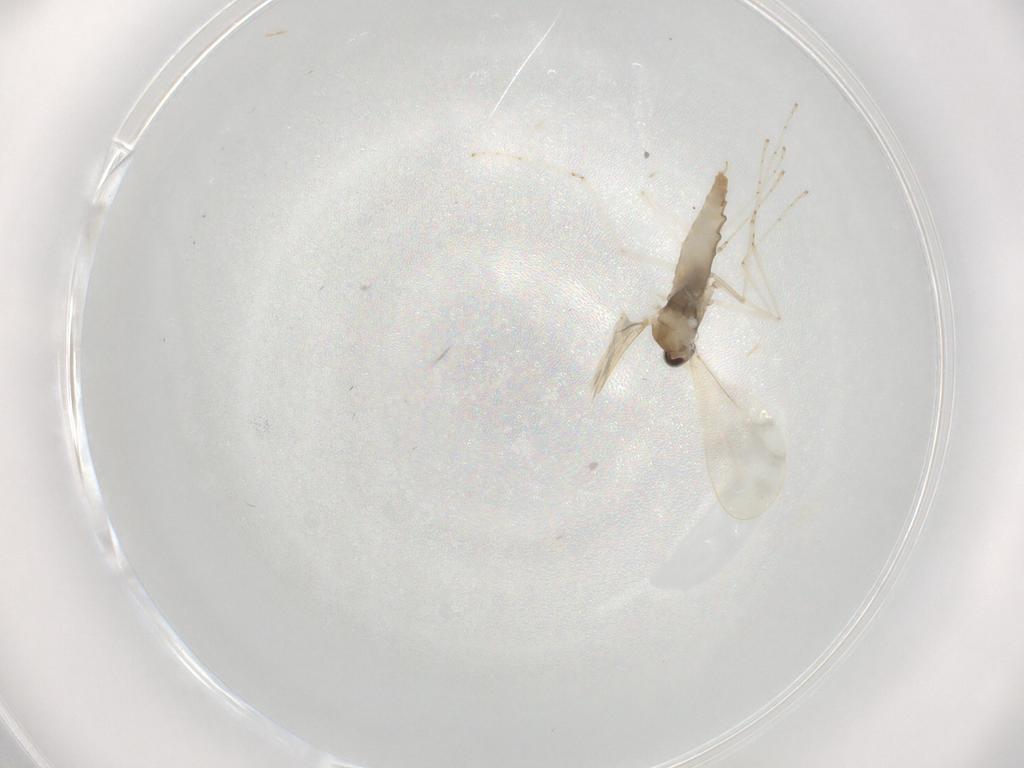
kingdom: Animalia
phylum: Arthropoda
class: Insecta
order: Diptera
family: Cecidomyiidae
